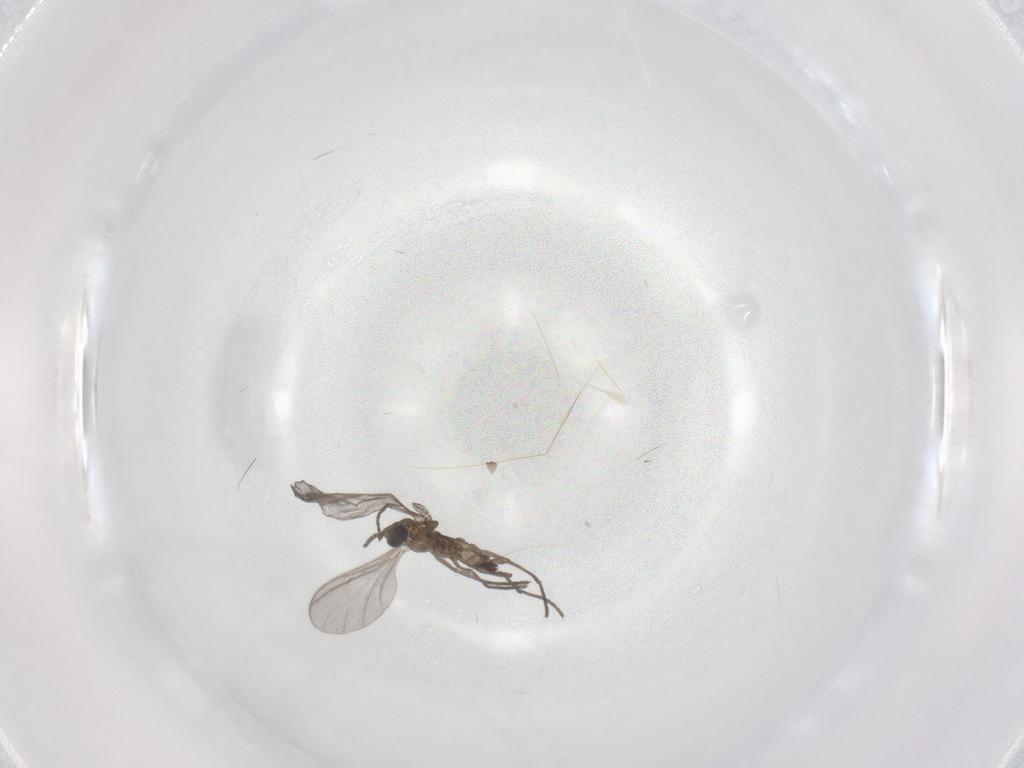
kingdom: Animalia
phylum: Arthropoda
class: Insecta
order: Diptera
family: Sciaridae
